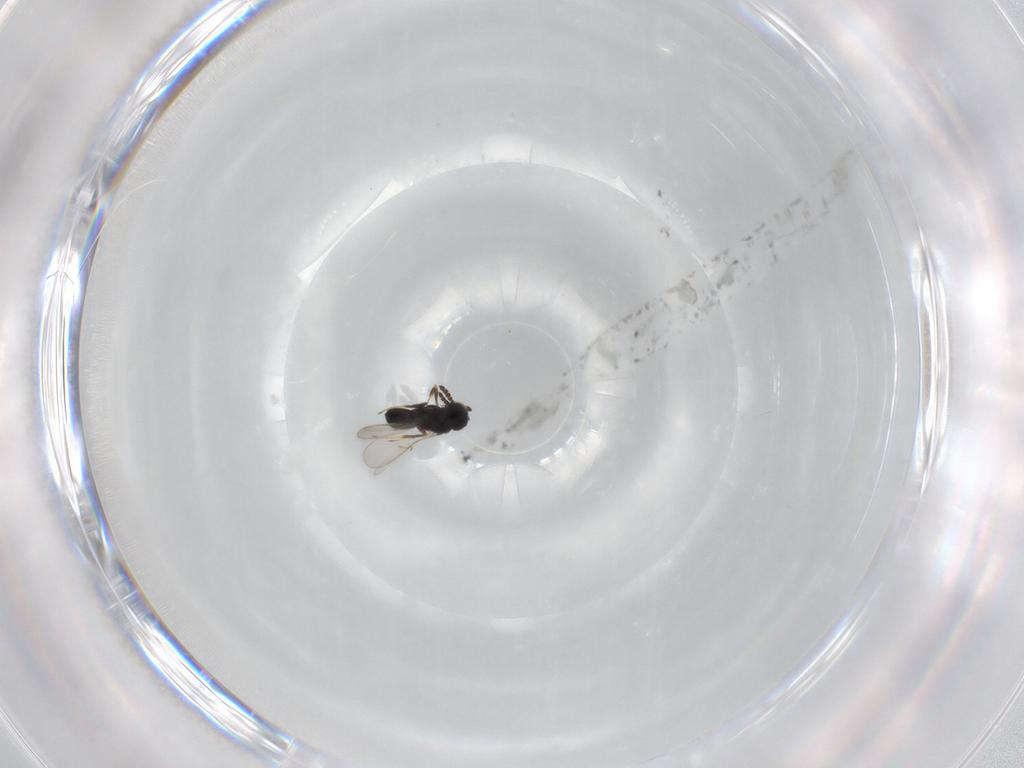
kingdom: Animalia
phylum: Arthropoda
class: Insecta
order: Hymenoptera
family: Scelionidae
